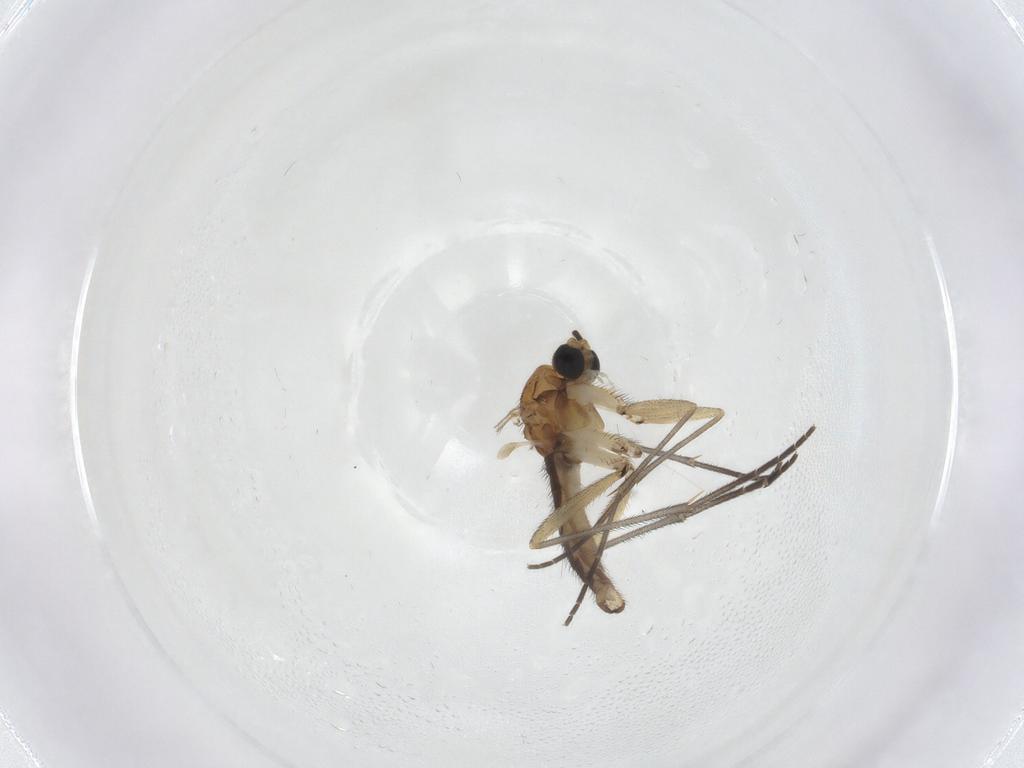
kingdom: Animalia
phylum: Arthropoda
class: Insecta
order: Diptera
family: Sciaridae
